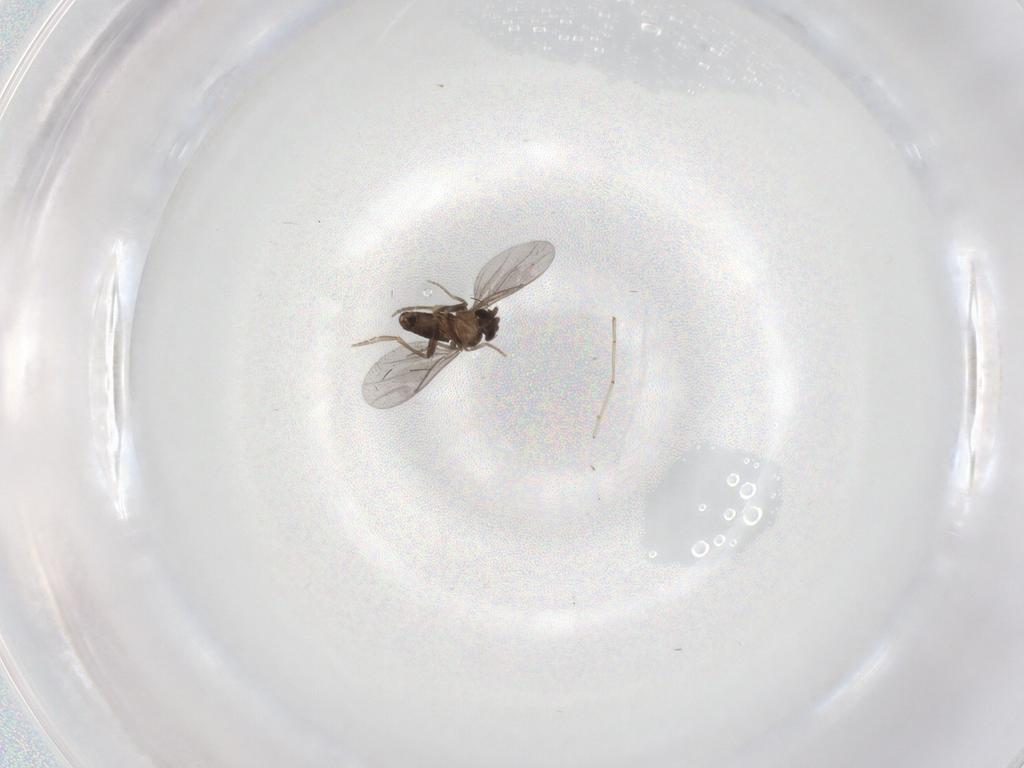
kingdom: Animalia
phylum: Arthropoda
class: Insecta
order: Diptera
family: Cecidomyiidae
